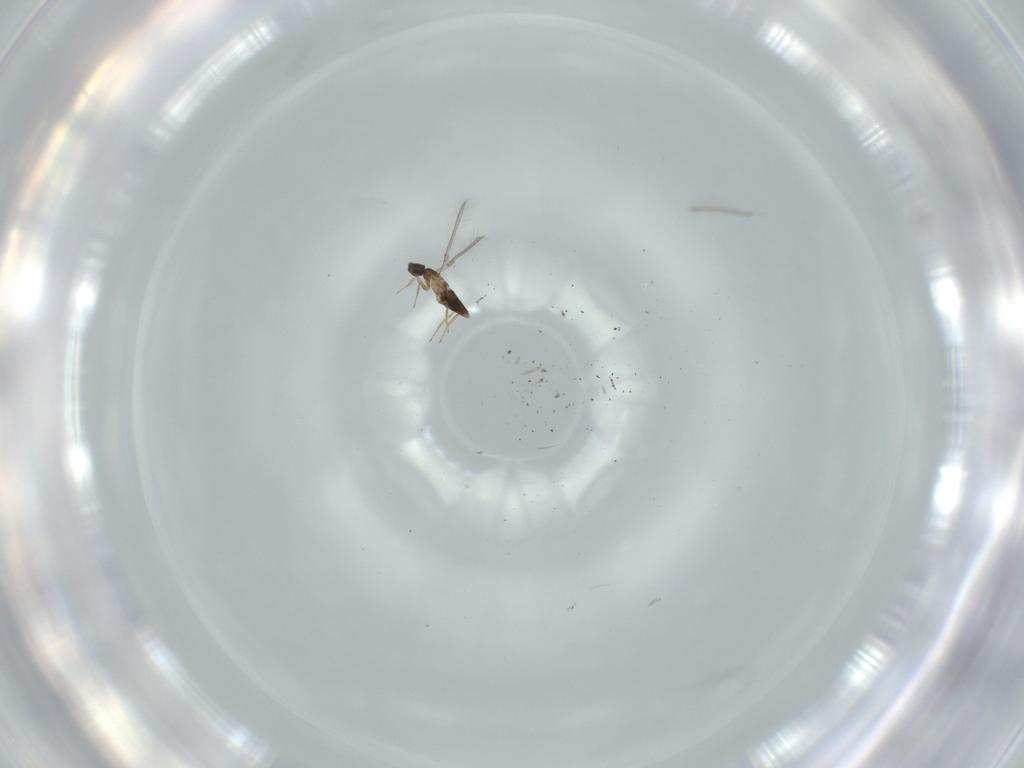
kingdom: Animalia
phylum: Arthropoda
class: Insecta
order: Hymenoptera
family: Mymaridae
